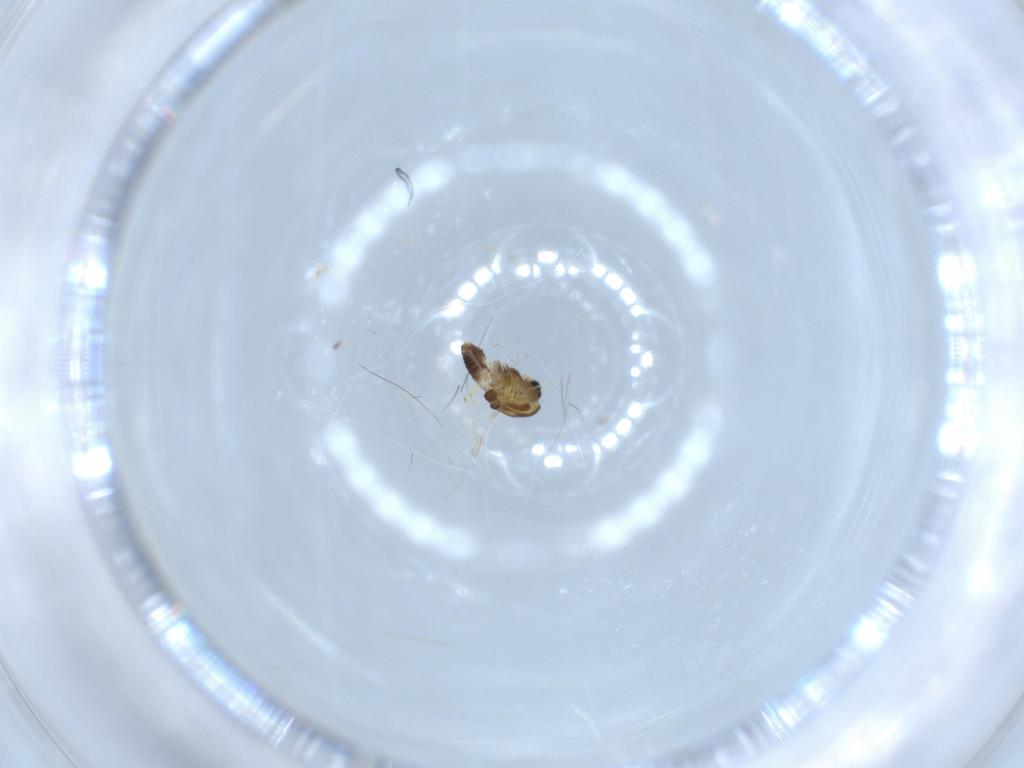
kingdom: Animalia
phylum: Arthropoda
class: Insecta
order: Diptera
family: Chironomidae
